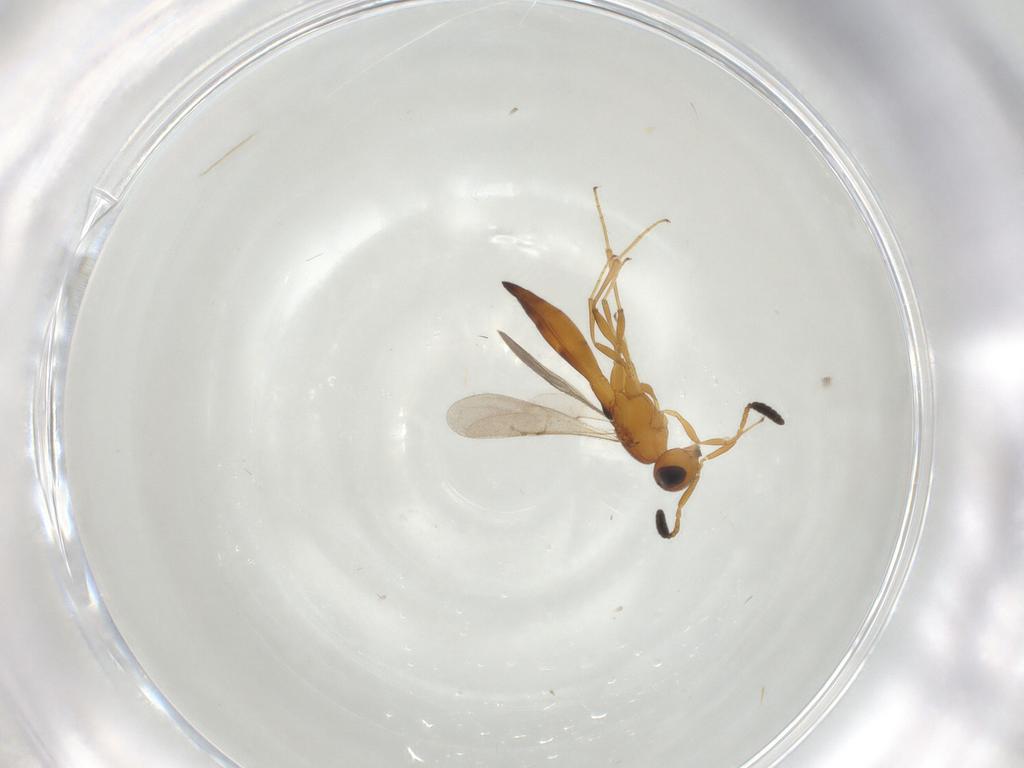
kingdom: Animalia
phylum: Arthropoda
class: Insecta
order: Hymenoptera
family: Scelionidae
